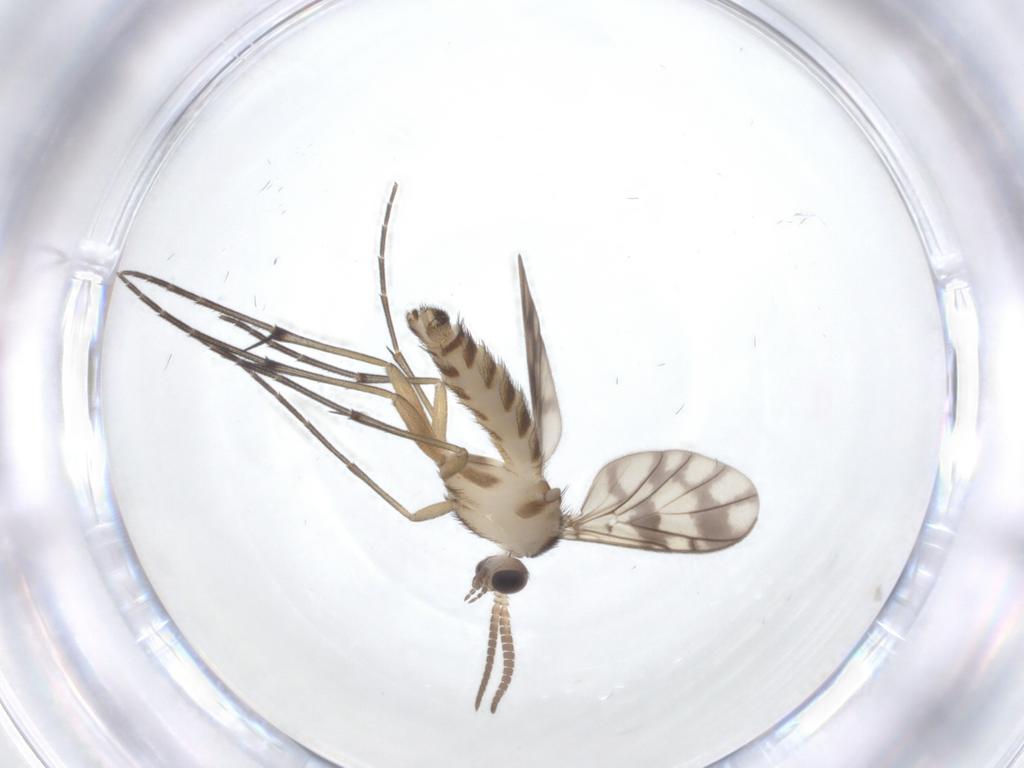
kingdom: Animalia
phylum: Arthropoda
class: Insecta
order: Diptera
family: Keroplatidae
